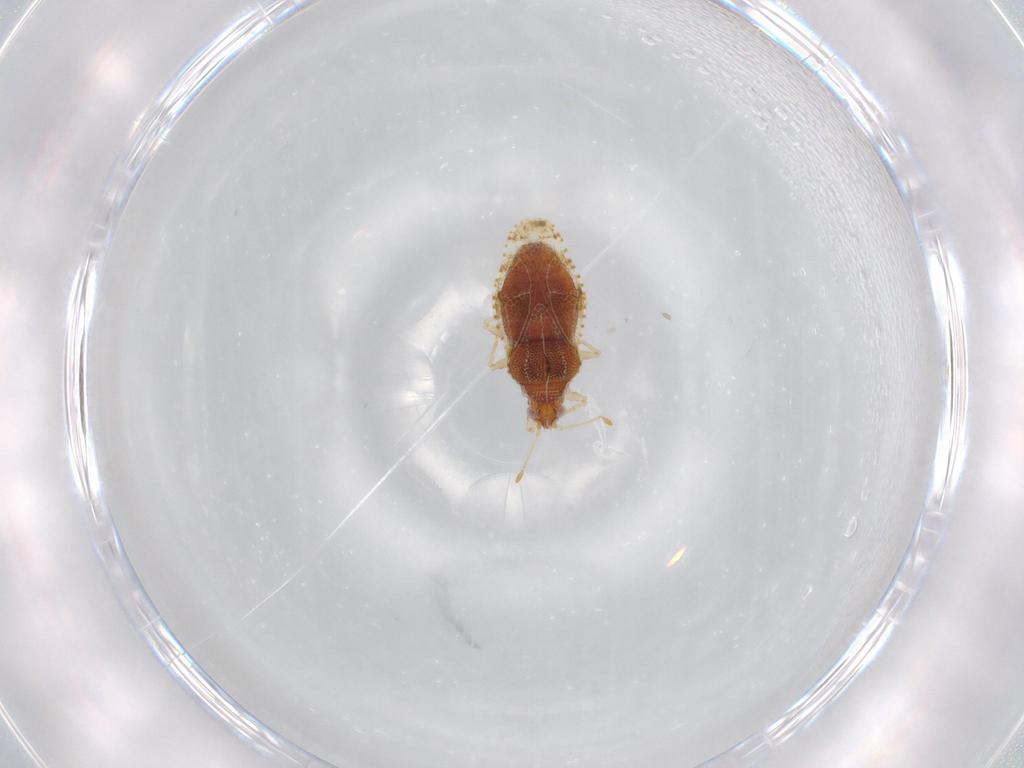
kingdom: Animalia
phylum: Arthropoda
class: Insecta
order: Hemiptera
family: Tingidae
